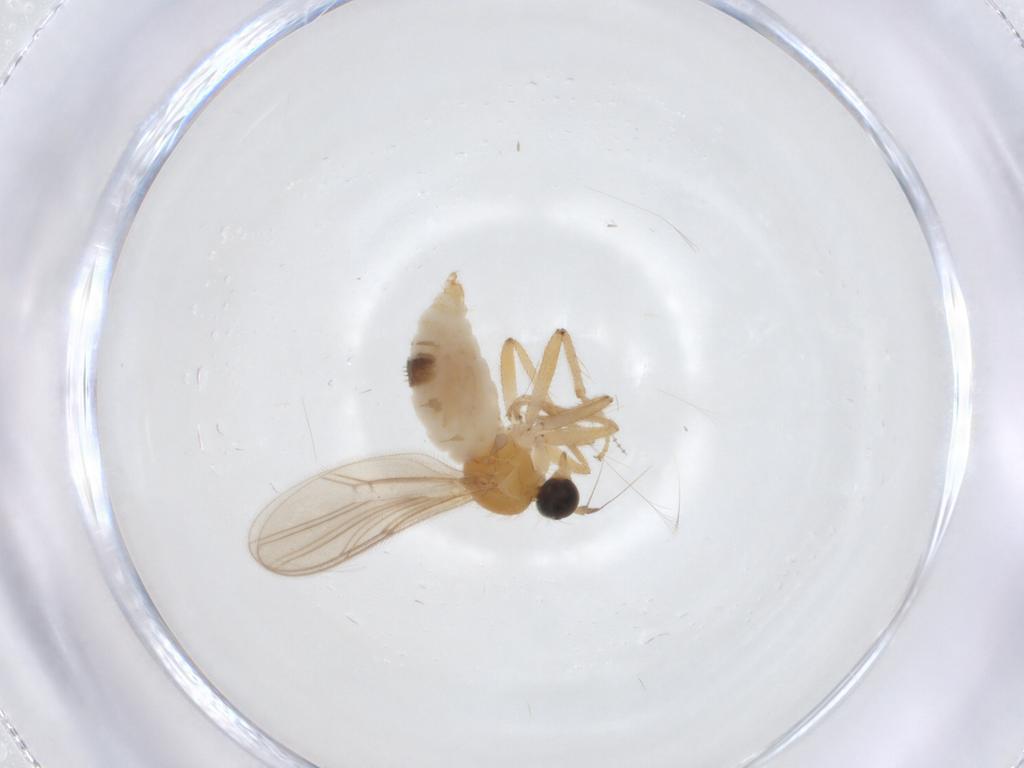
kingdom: Animalia
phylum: Arthropoda
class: Insecta
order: Diptera
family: Hybotidae
